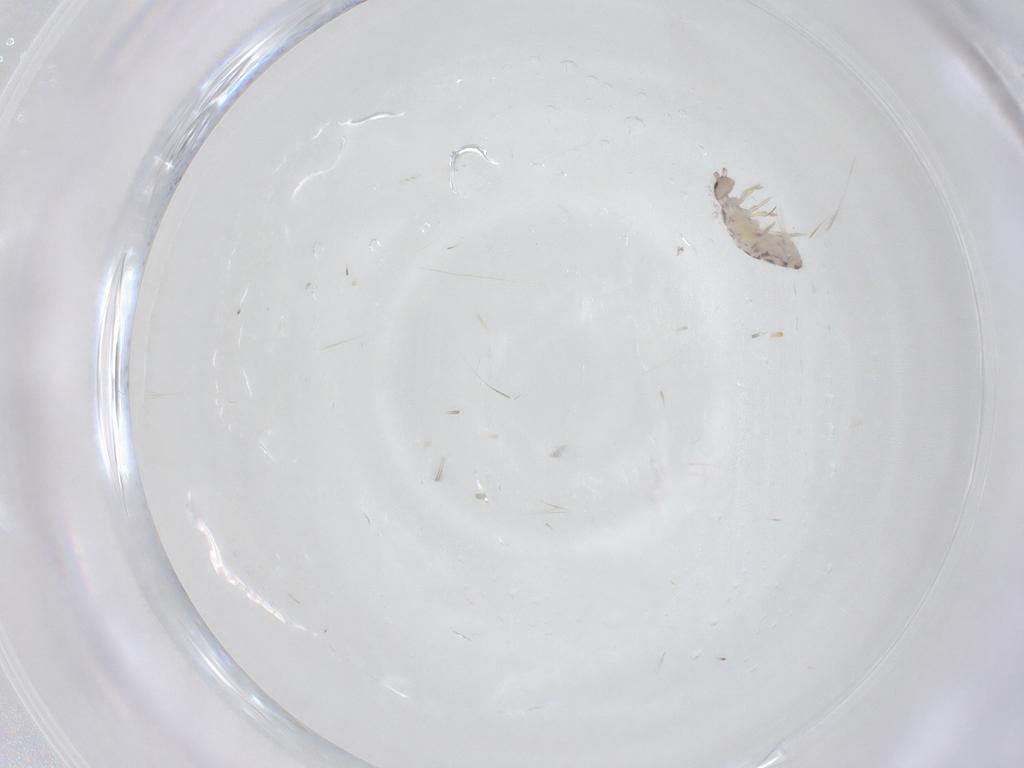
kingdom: Animalia
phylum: Arthropoda
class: Collembola
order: Entomobryomorpha
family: Entomobryidae
